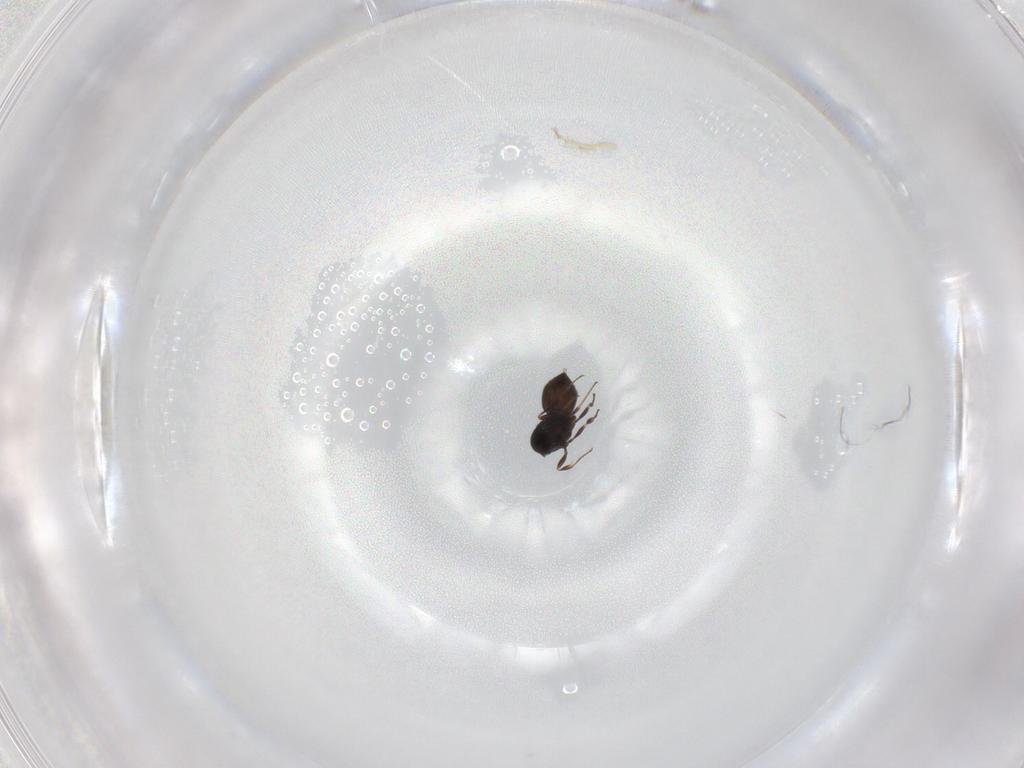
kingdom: Animalia
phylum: Arthropoda
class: Insecta
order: Hymenoptera
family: Scelionidae
